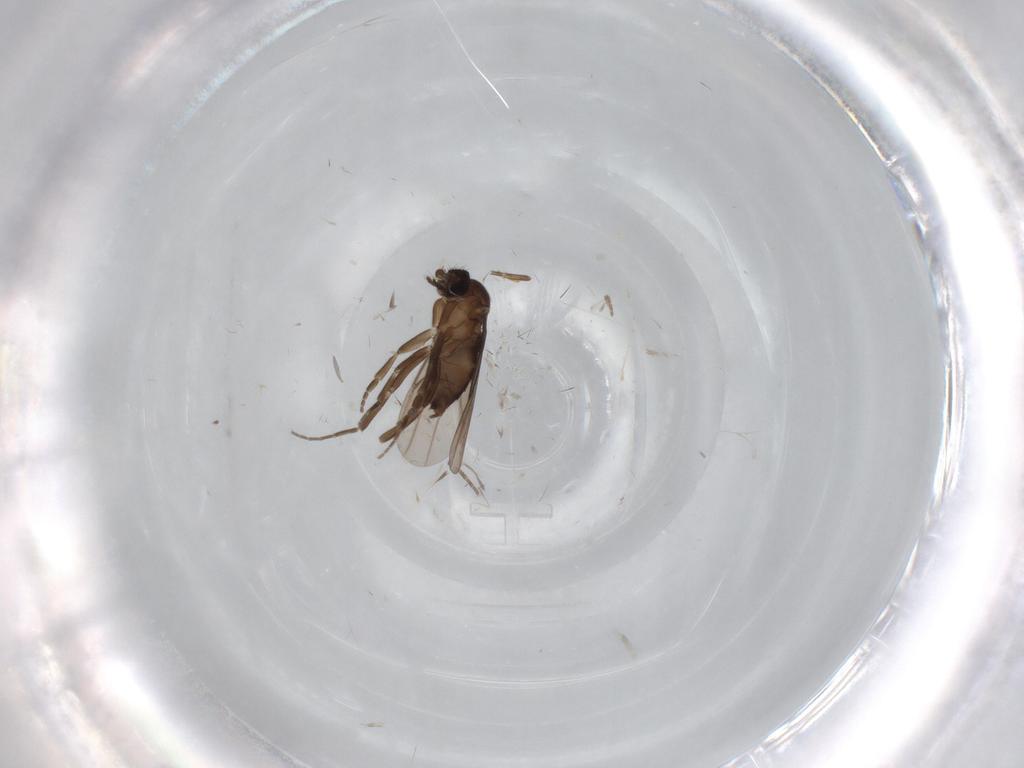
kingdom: Animalia
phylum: Arthropoda
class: Insecta
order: Diptera
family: Phoridae
